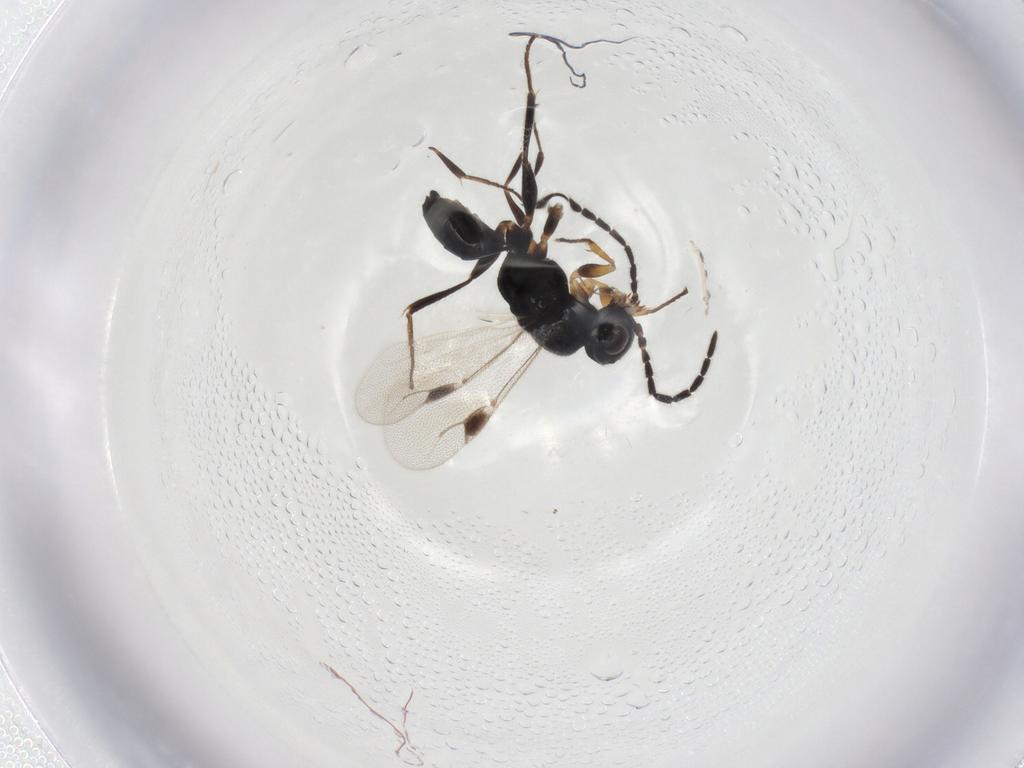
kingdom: Animalia
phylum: Arthropoda
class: Insecta
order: Hymenoptera
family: Dryinidae
